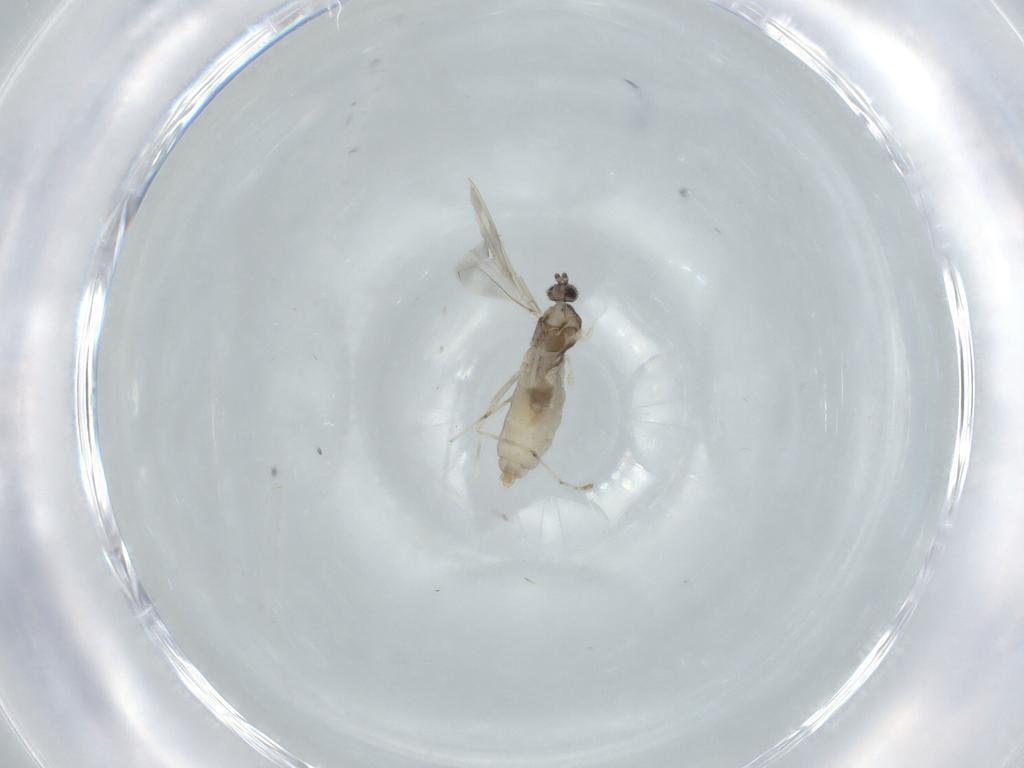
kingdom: Animalia
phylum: Arthropoda
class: Insecta
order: Diptera
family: Cecidomyiidae
